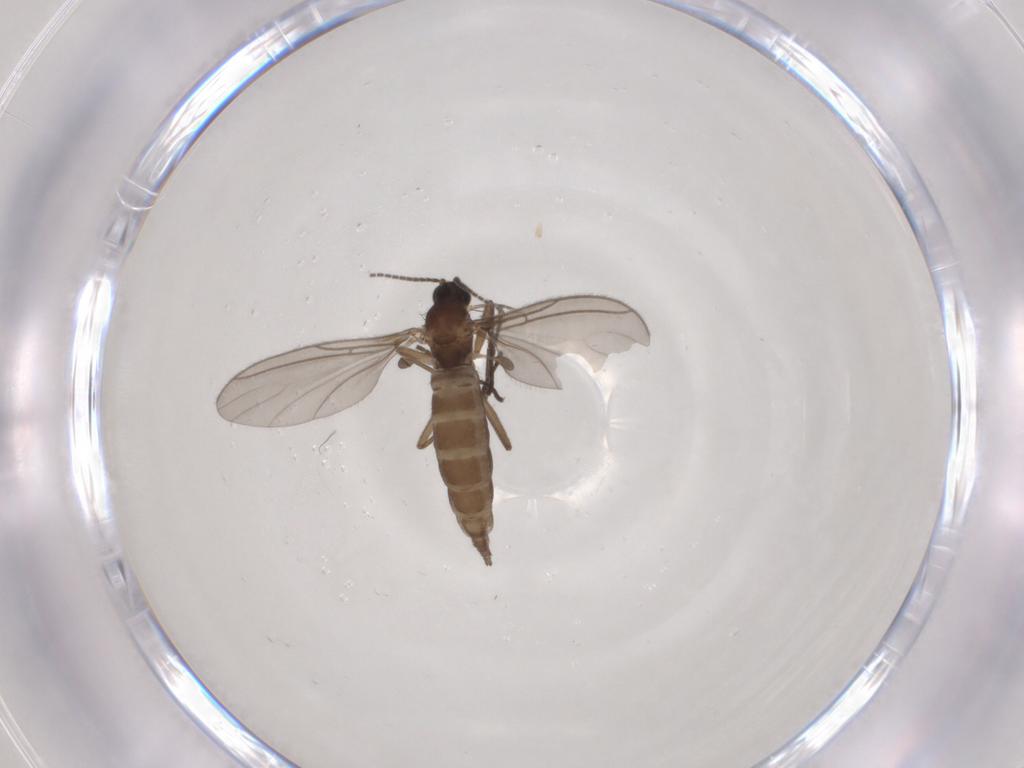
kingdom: Animalia
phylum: Arthropoda
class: Insecta
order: Diptera
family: Sciaridae
